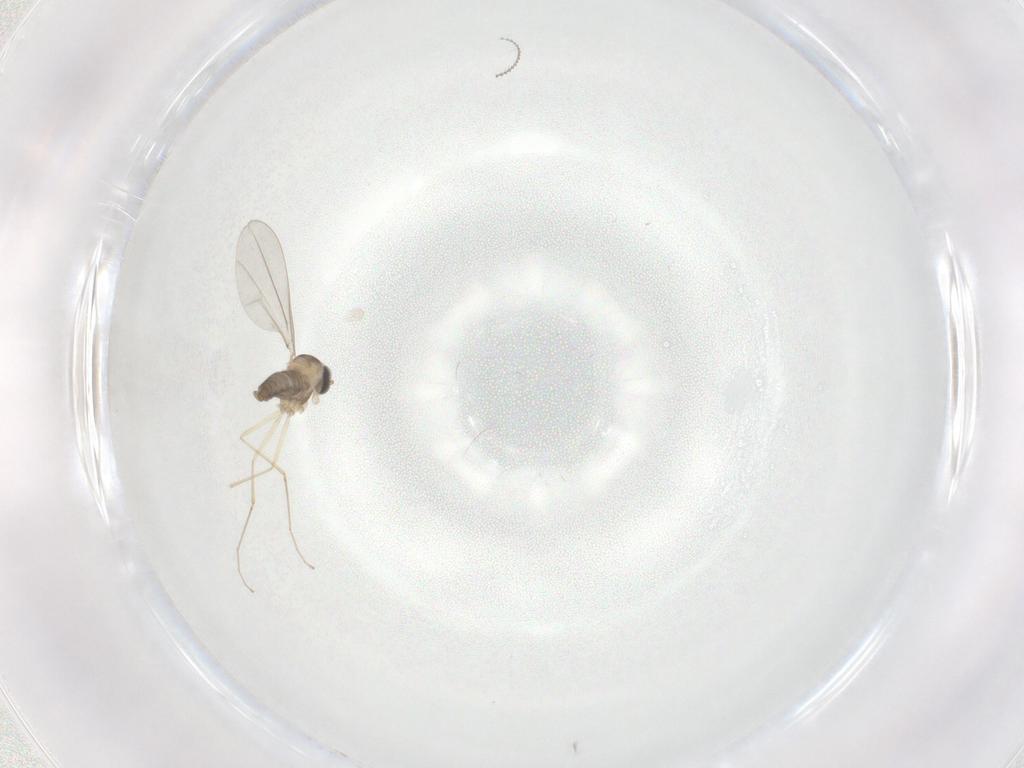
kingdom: Animalia
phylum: Arthropoda
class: Insecta
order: Diptera
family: Cecidomyiidae
